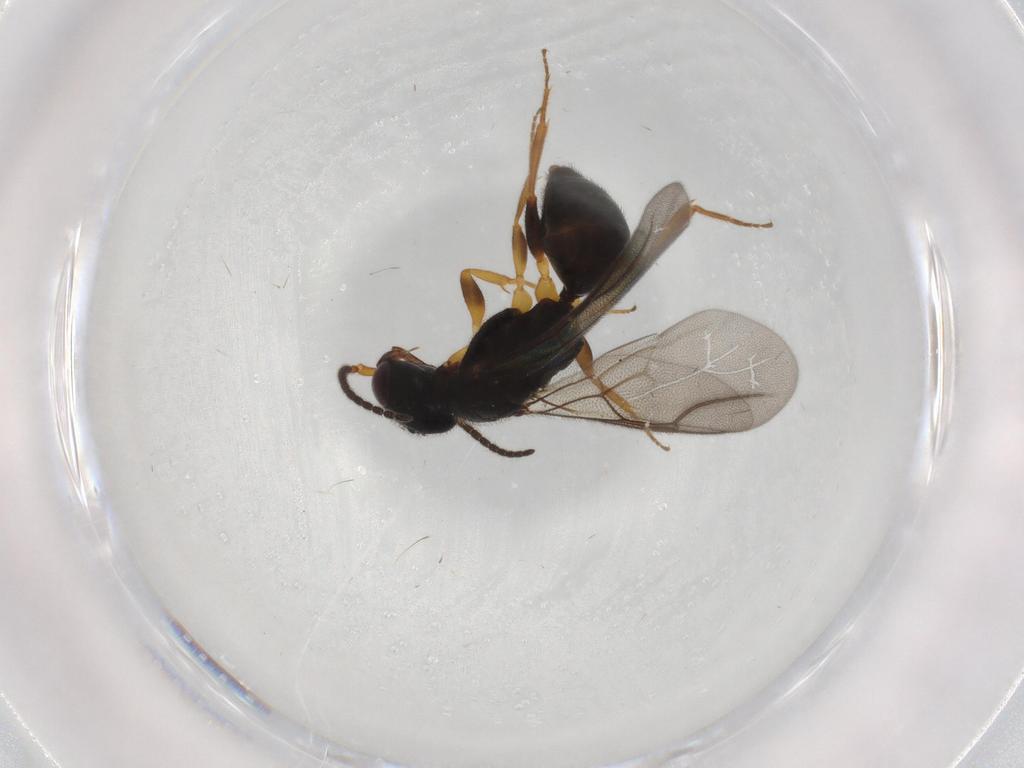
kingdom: Animalia
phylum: Arthropoda
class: Insecta
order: Hymenoptera
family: Bethylidae
